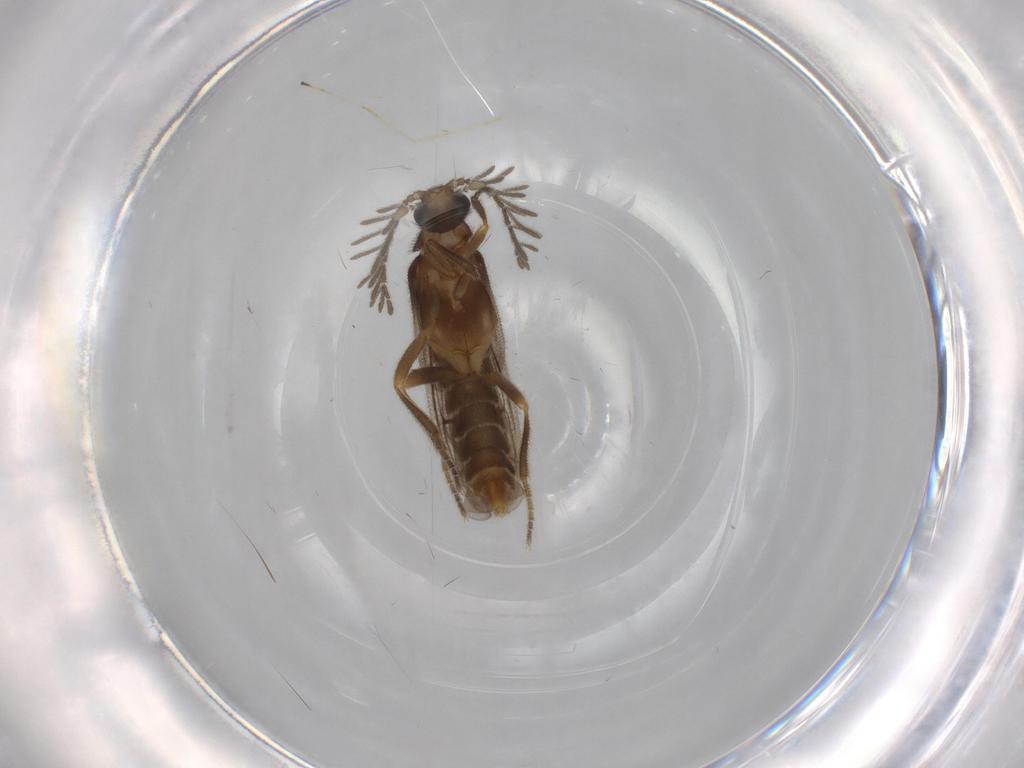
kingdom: Animalia
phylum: Arthropoda
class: Insecta
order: Coleoptera
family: Scarabaeidae
